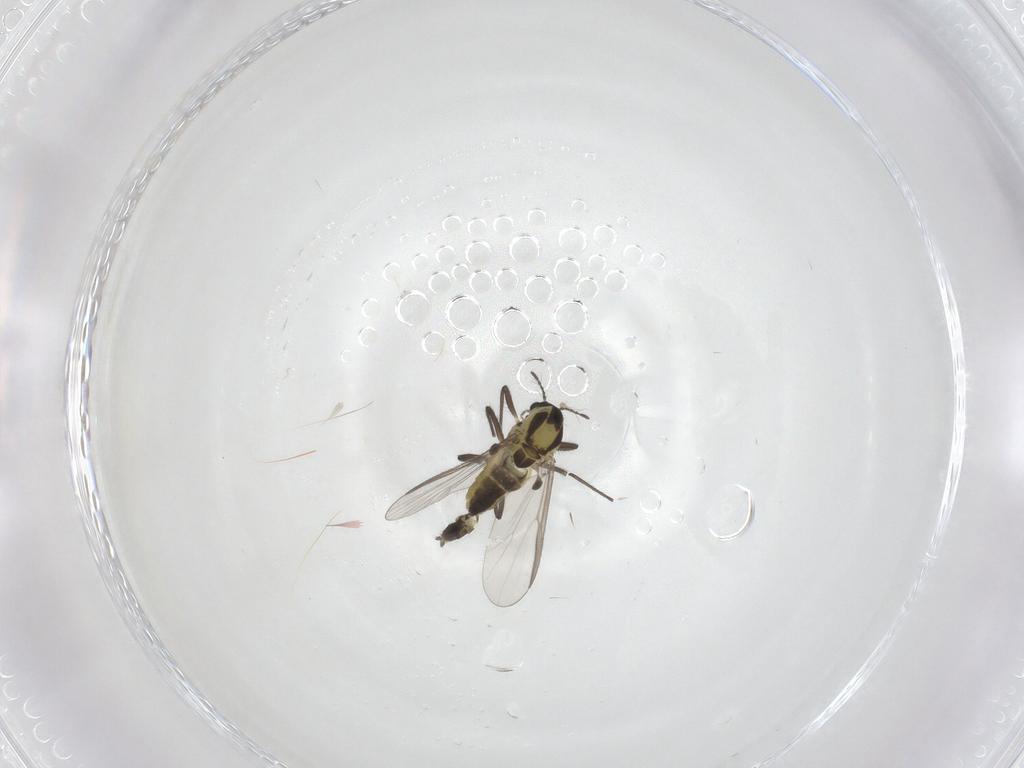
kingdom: Animalia
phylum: Arthropoda
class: Insecta
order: Diptera
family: Chironomidae
